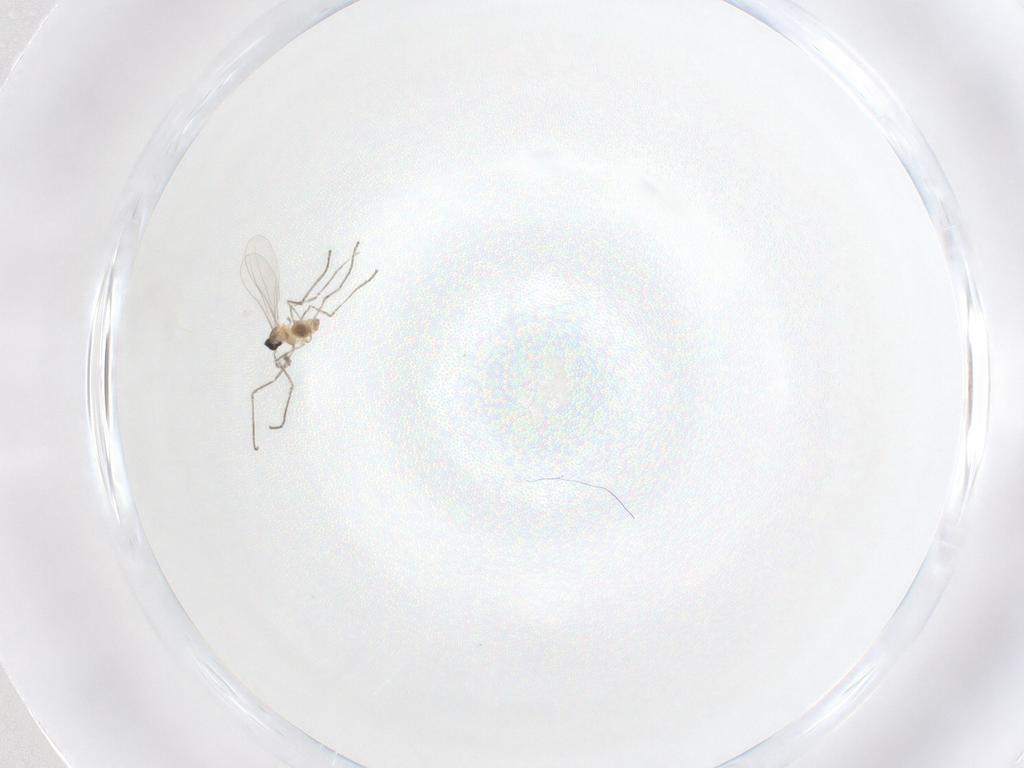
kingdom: Animalia
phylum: Arthropoda
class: Insecta
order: Diptera
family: Cecidomyiidae
